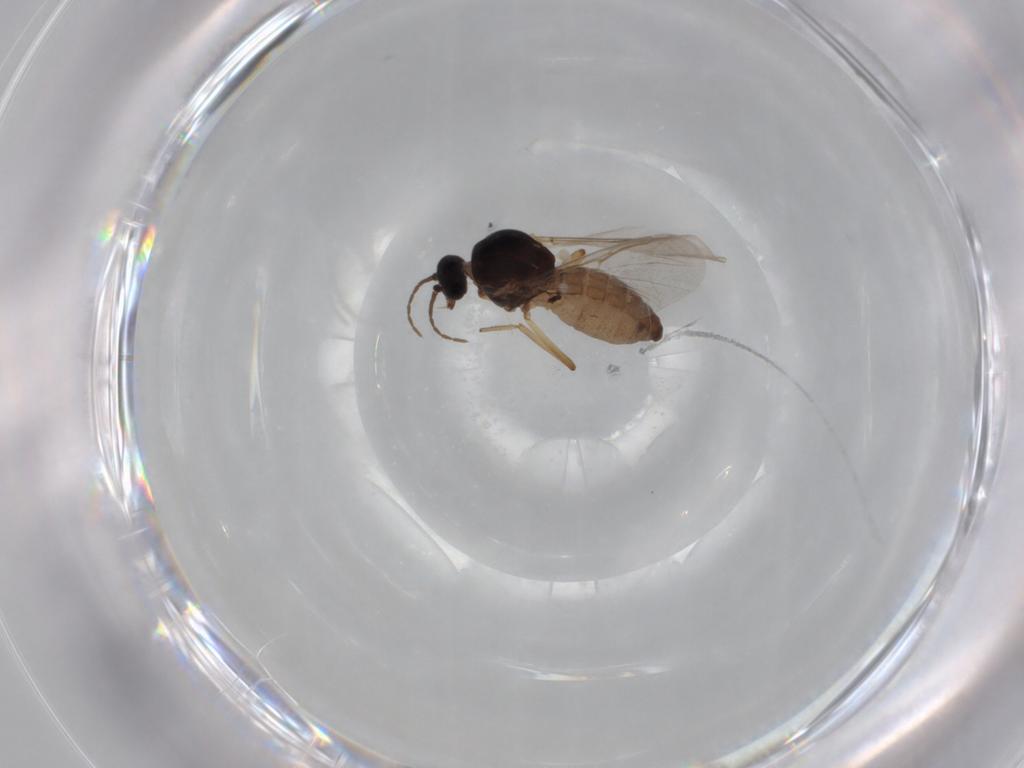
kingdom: Animalia
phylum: Arthropoda
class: Insecta
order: Diptera
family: Ceratopogonidae
